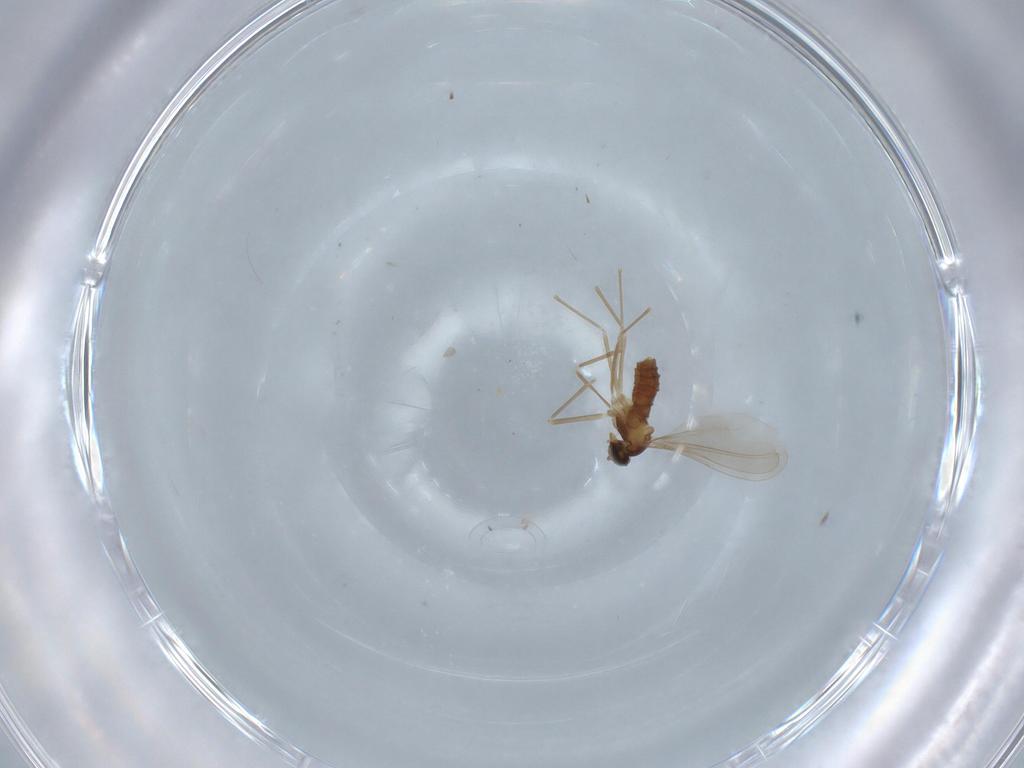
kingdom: Animalia
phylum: Arthropoda
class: Insecta
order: Diptera
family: Cecidomyiidae
